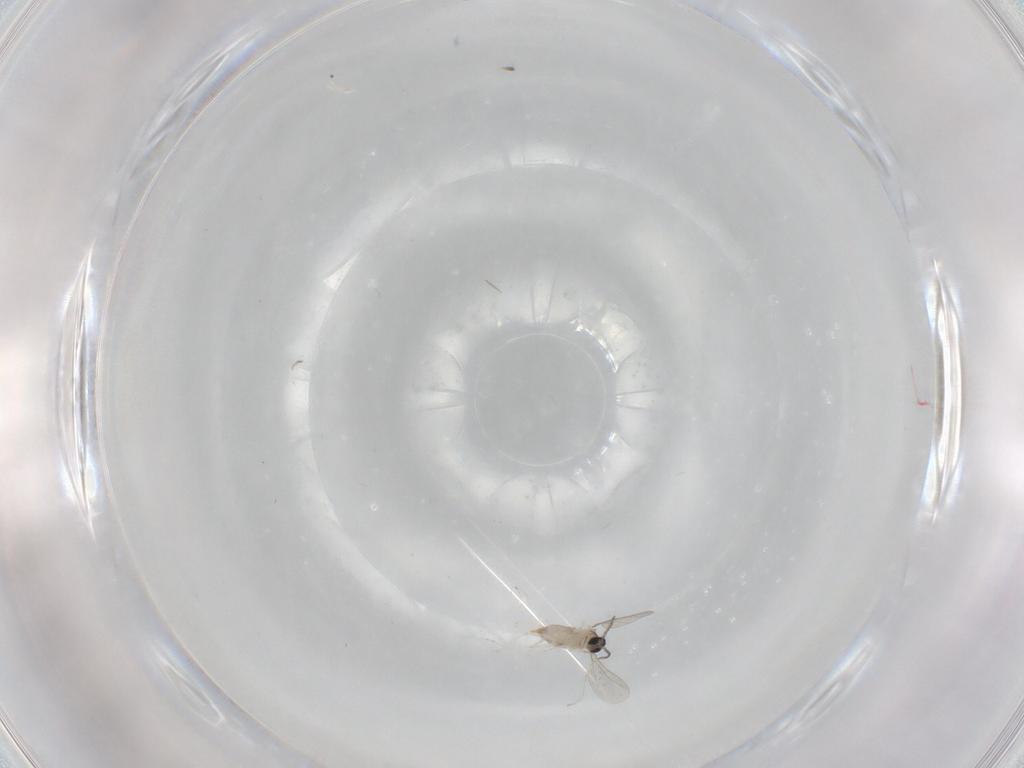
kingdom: Animalia
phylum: Arthropoda
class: Insecta
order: Diptera
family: Cecidomyiidae
